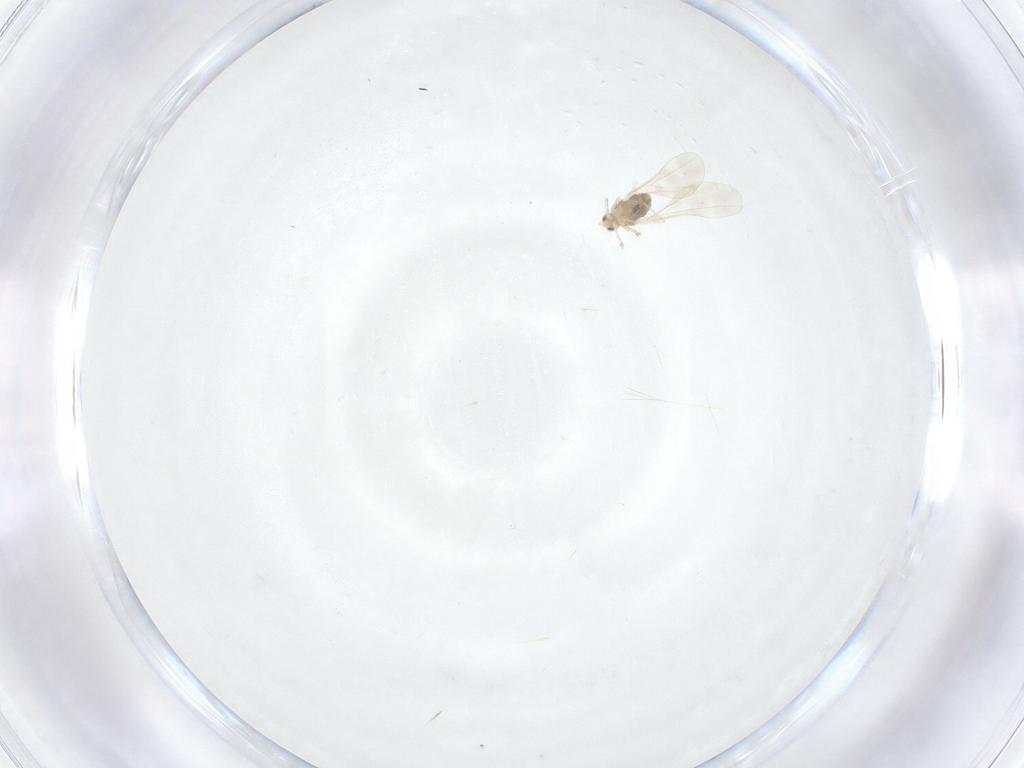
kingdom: Animalia
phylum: Arthropoda
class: Insecta
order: Diptera
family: Cecidomyiidae
